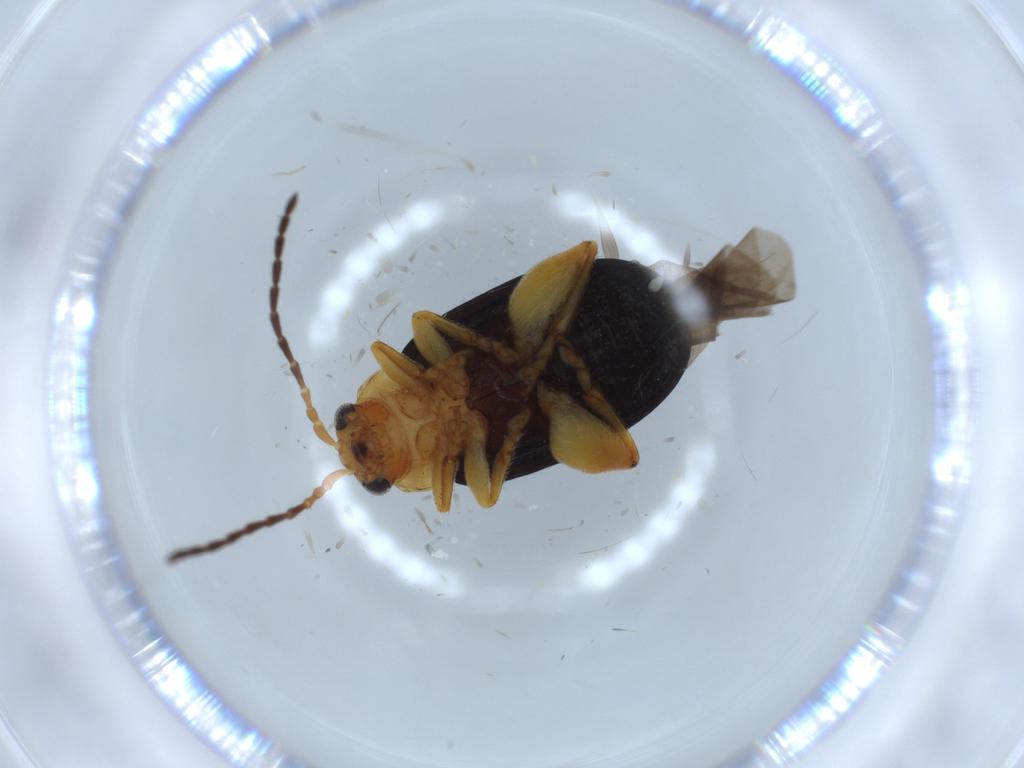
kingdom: Animalia
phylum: Arthropoda
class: Insecta
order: Coleoptera
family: Chrysomelidae
